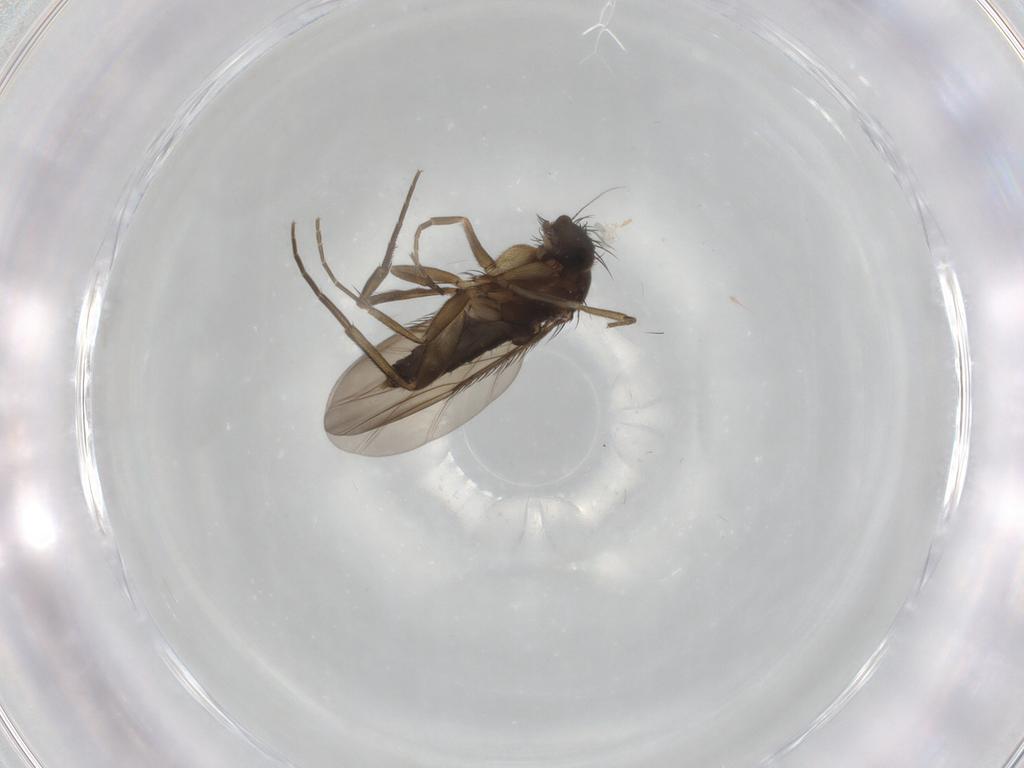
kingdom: Animalia
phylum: Arthropoda
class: Insecta
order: Diptera
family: Phoridae
